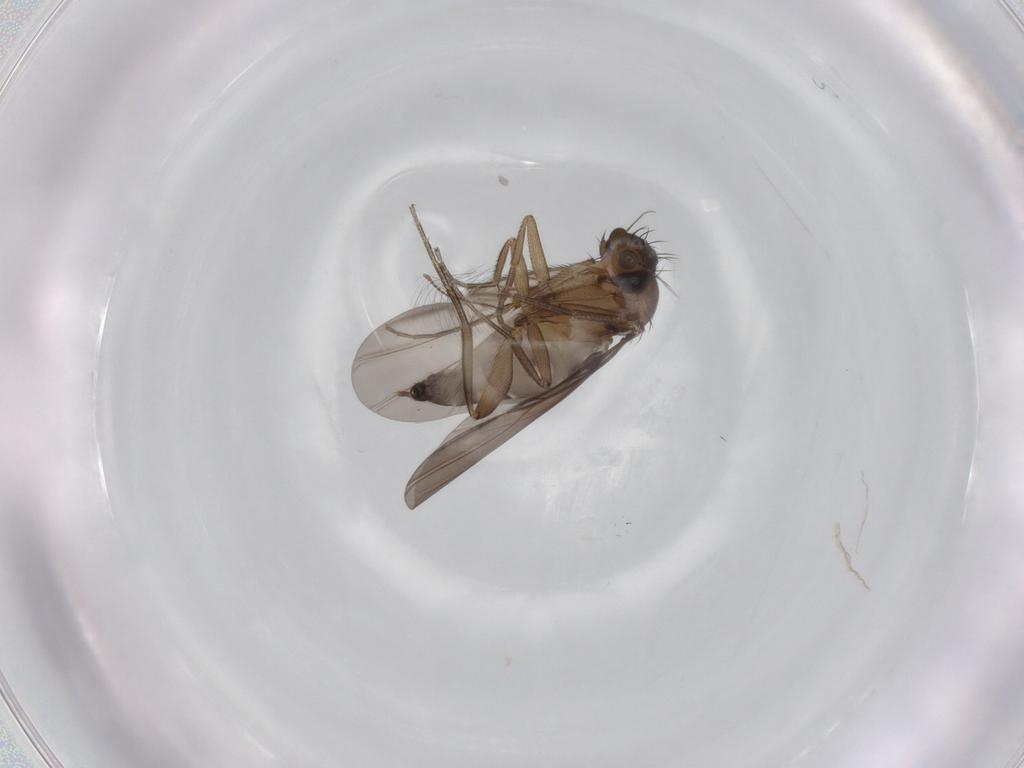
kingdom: Animalia
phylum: Arthropoda
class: Insecta
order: Diptera
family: Phoridae
